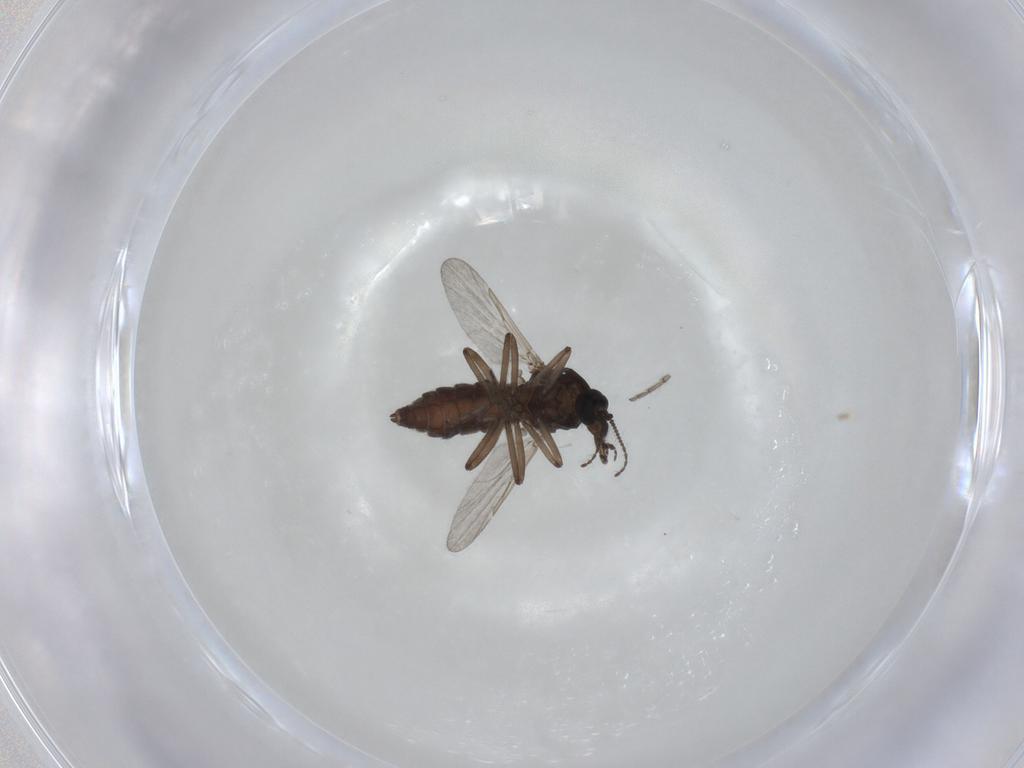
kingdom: Animalia
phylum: Arthropoda
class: Insecta
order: Diptera
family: Ceratopogonidae
